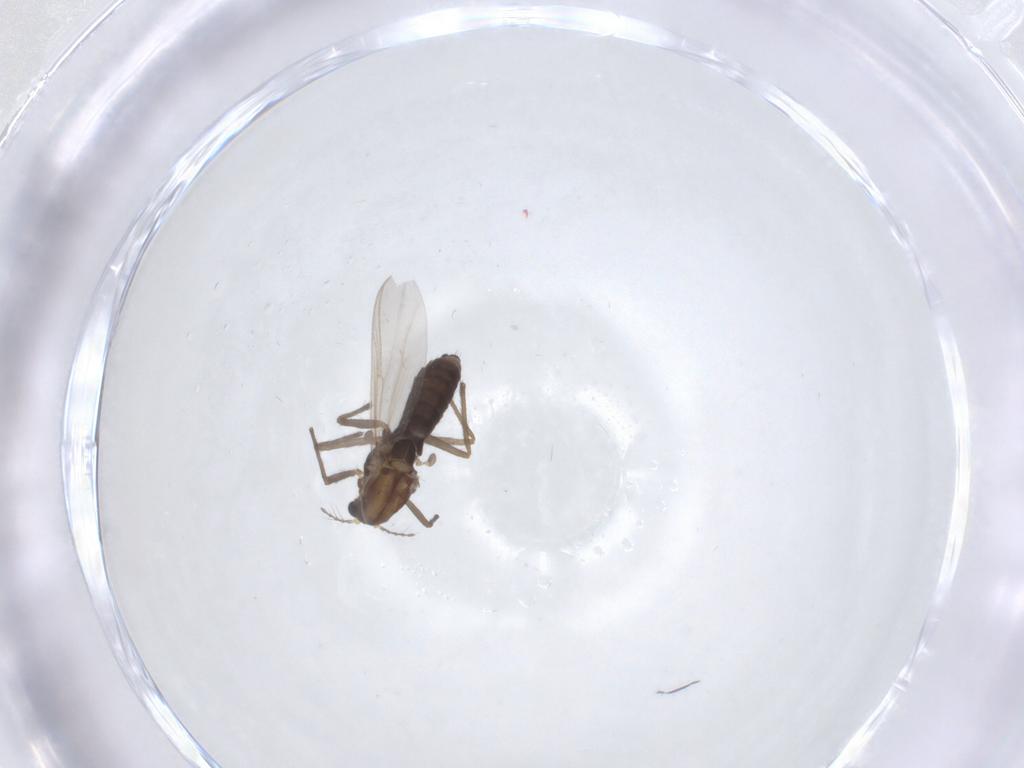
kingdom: Animalia
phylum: Arthropoda
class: Insecta
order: Diptera
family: Chironomidae
